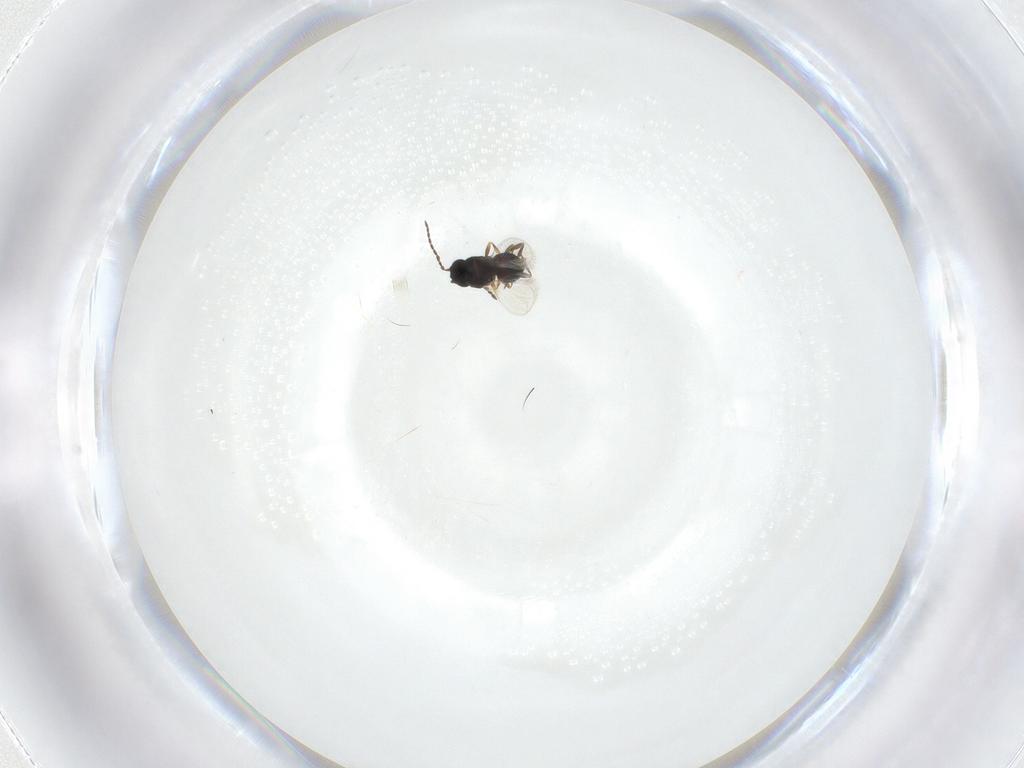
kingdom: Animalia
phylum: Arthropoda
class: Insecta
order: Hymenoptera
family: Platygastridae
